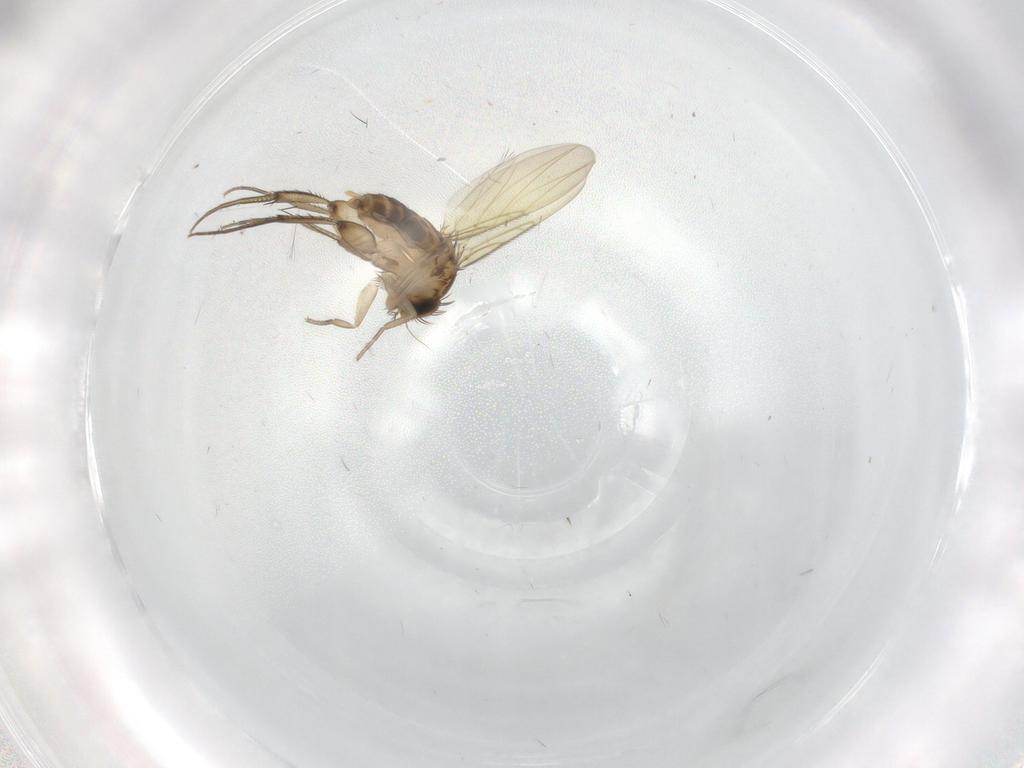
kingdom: Animalia
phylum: Arthropoda
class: Insecta
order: Diptera
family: Phoridae
